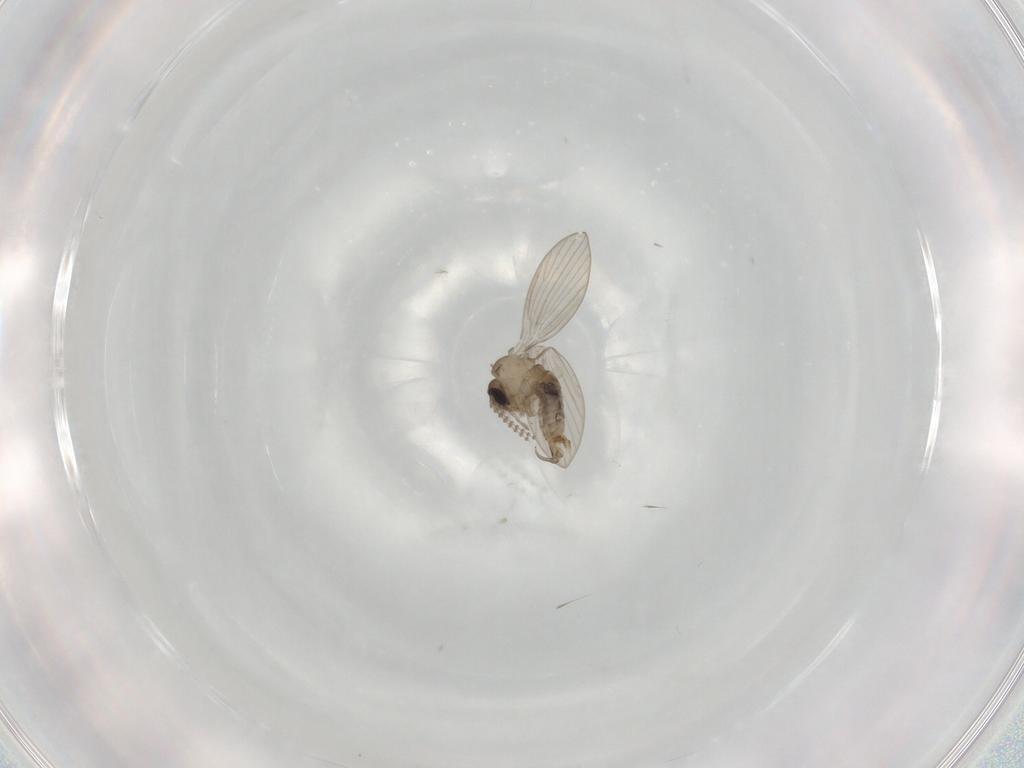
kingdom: Animalia
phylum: Arthropoda
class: Insecta
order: Diptera
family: Psychodidae
